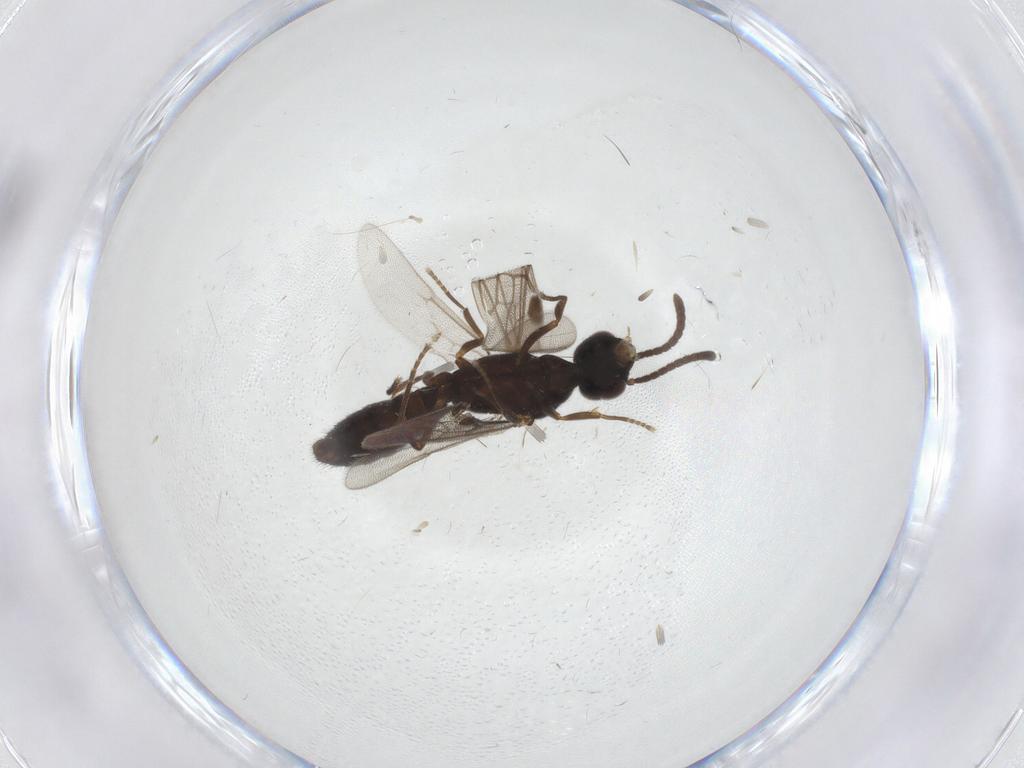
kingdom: Animalia
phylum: Arthropoda
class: Insecta
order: Hymenoptera
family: Formicidae
